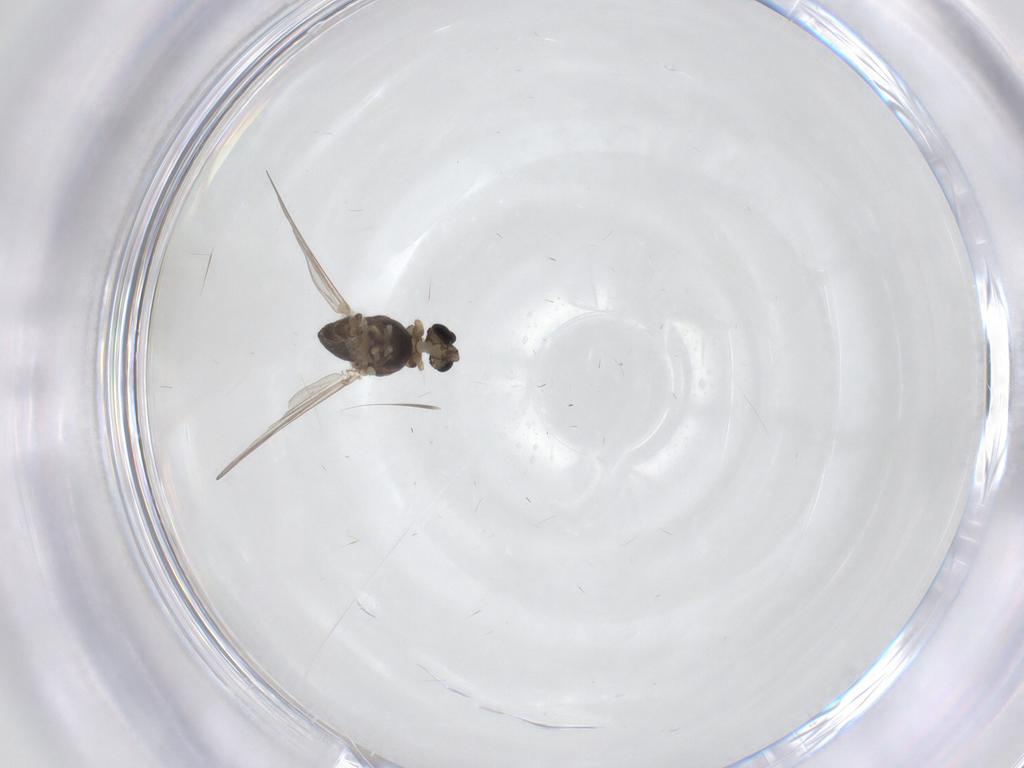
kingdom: Animalia
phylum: Arthropoda
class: Insecta
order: Diptera
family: Chironomidae
